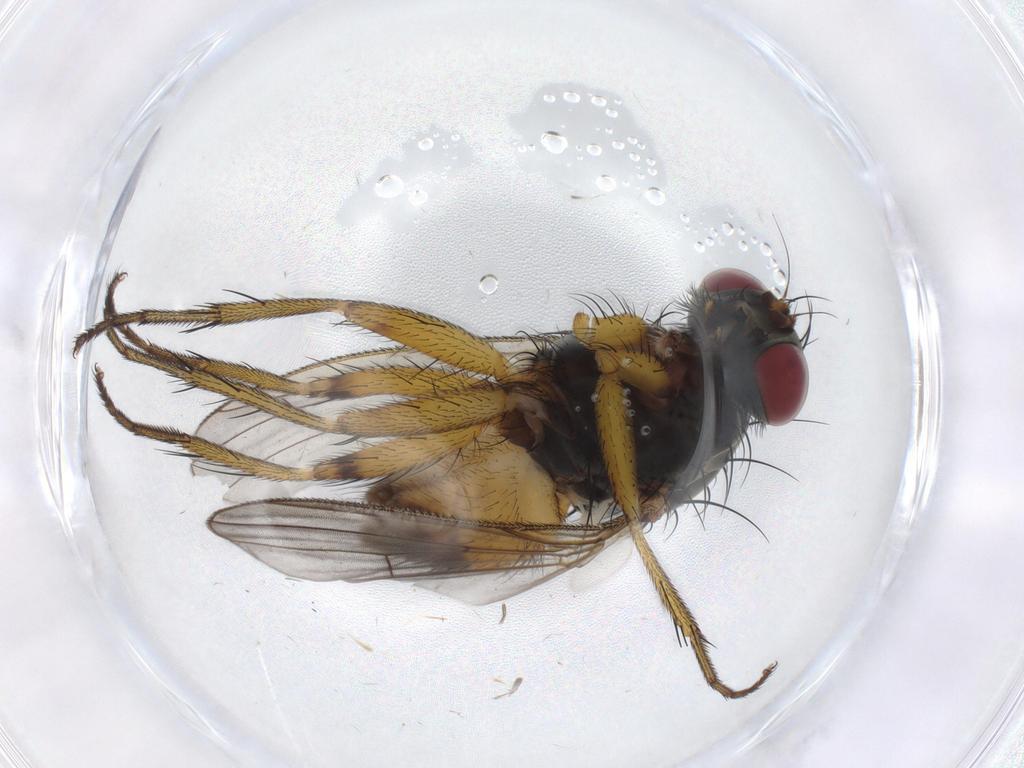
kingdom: Animalia
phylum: Arthropoda
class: Insecta
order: Diptera
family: Muscidae
